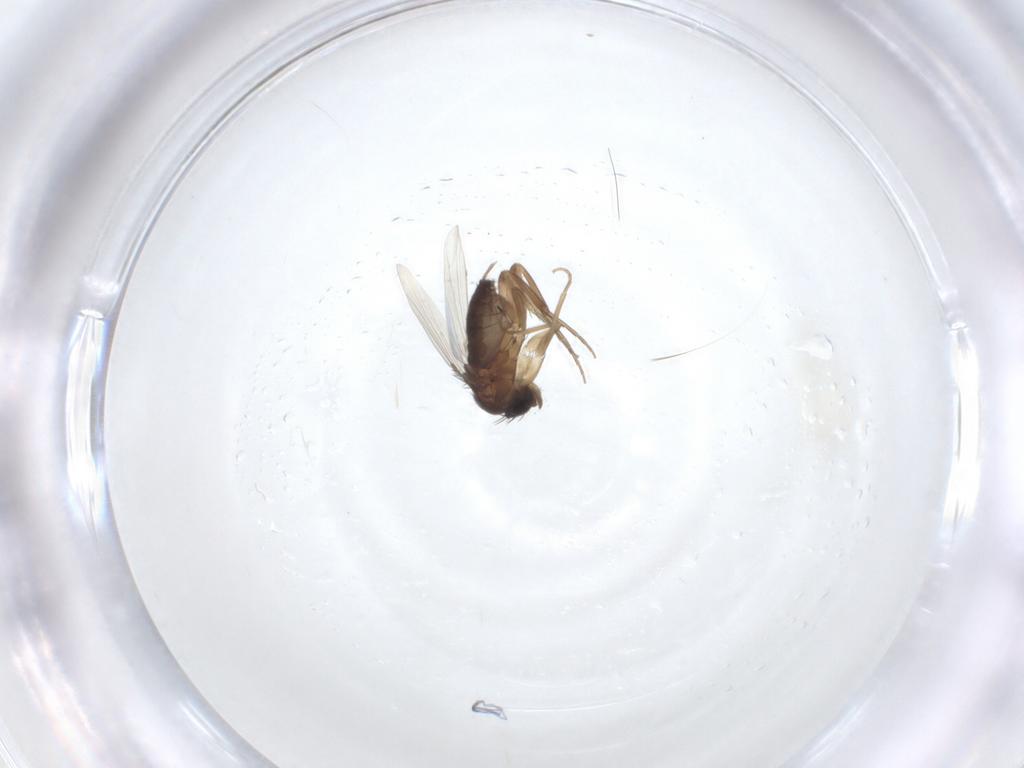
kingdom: Animalia
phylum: Arthropoda
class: Insecta
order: Diptera
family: Phoridae
